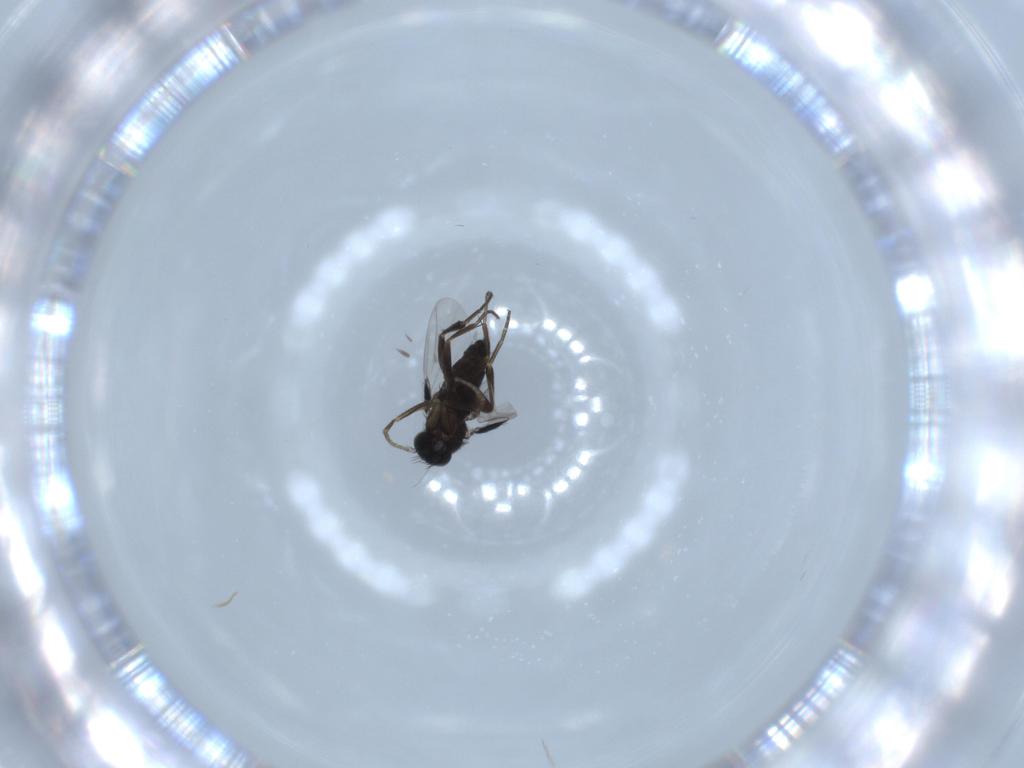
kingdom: Animalia
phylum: Arthropoda
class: Insecta
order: Diptera
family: Phoridae
